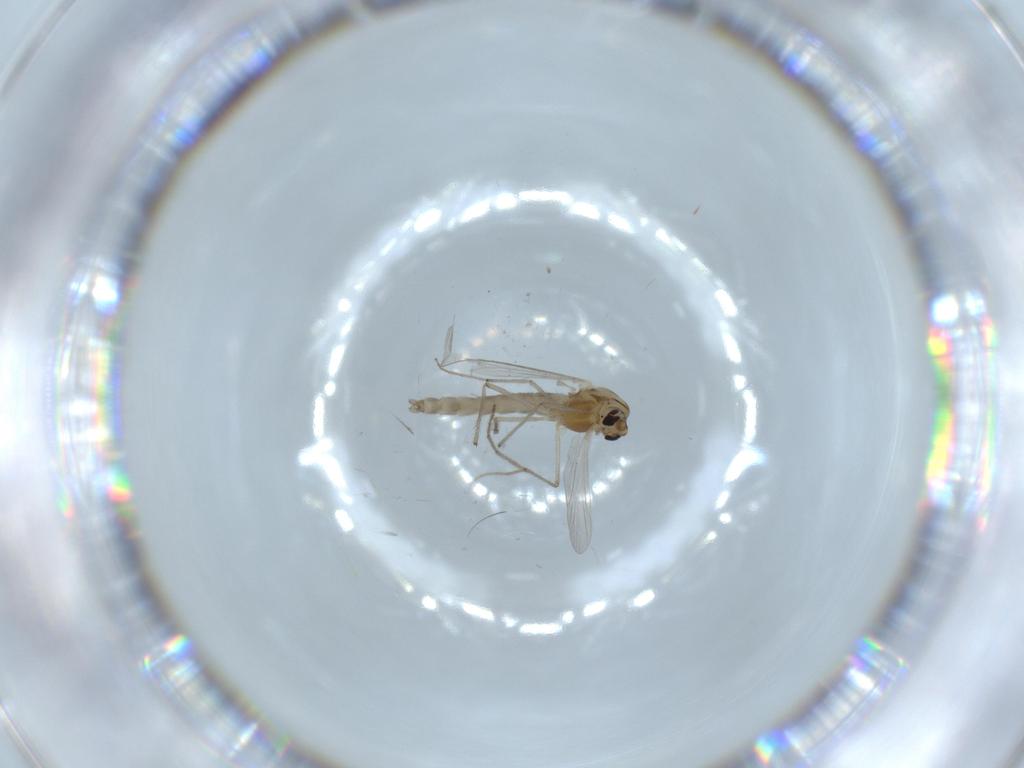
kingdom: Animalia
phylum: Arthropoda
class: Insecta
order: Diptera
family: Chironomidae
